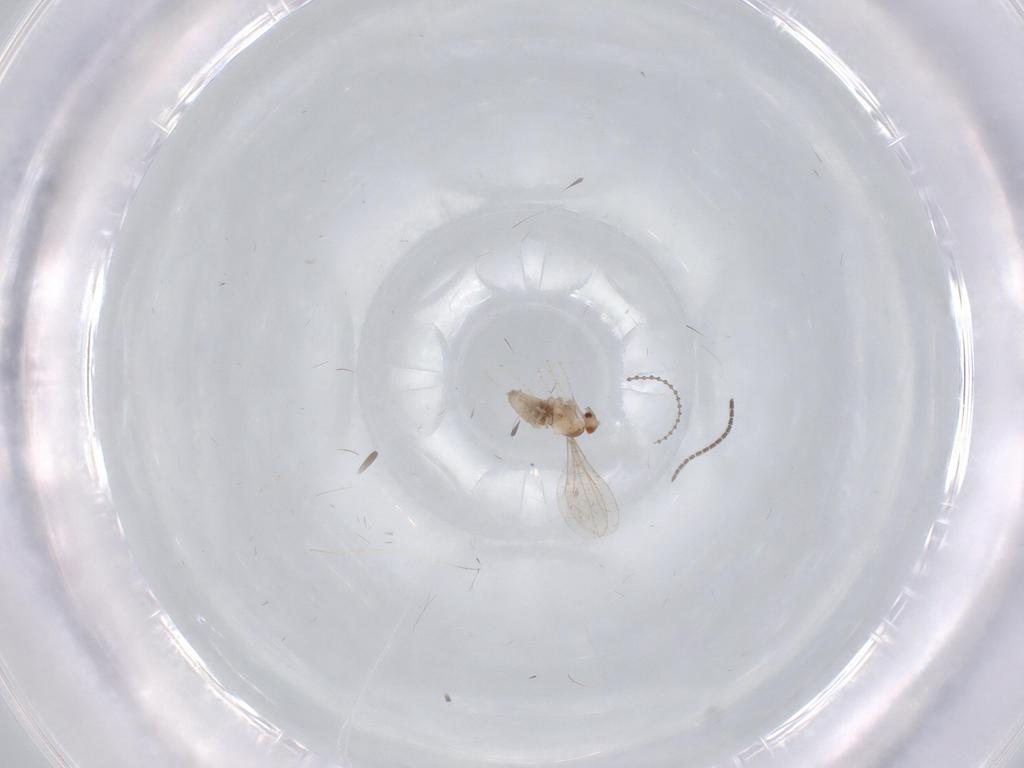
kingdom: Animalia
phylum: Arthropoda
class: Insecta
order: Diptera
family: Cecidomyiidae
